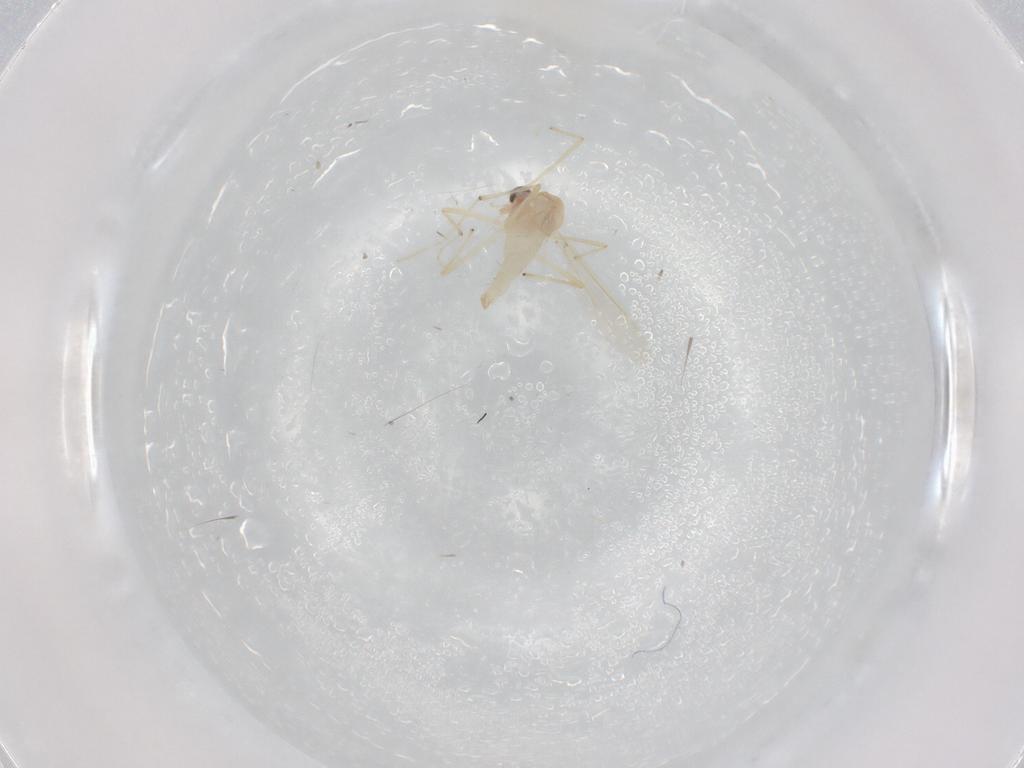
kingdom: Animalia
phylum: Arthropoda
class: Insecta
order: Diptera
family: Chironomidae
